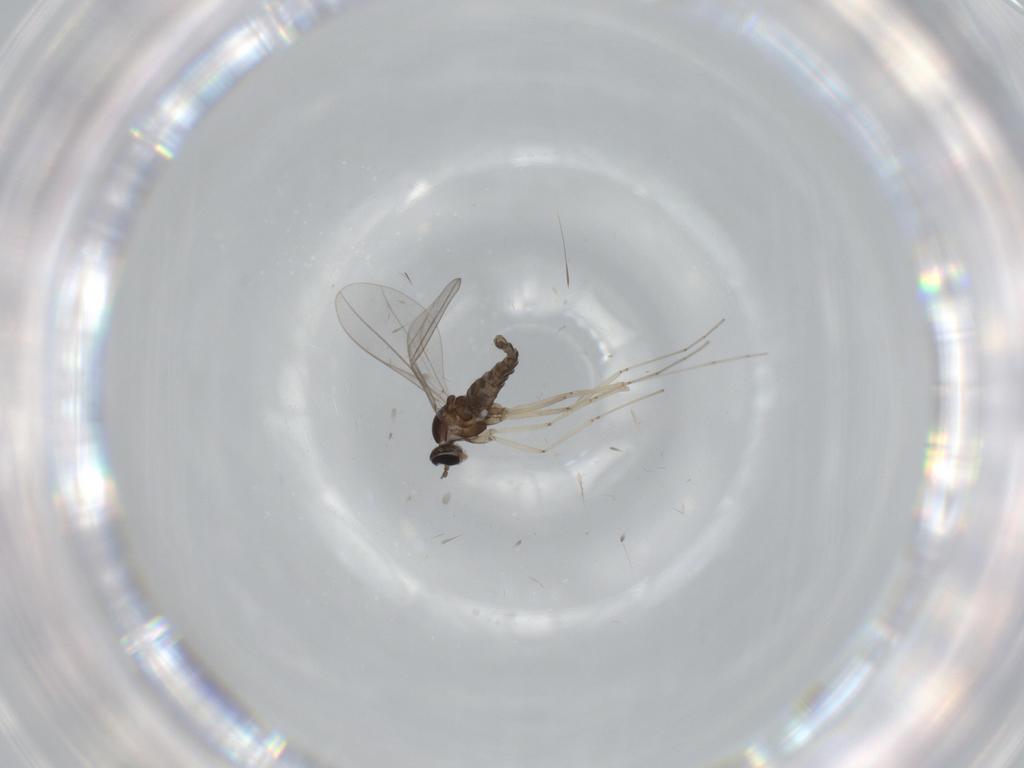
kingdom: Animalia
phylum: Arthropoda
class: Insecta
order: Diptera
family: Cecidomyiidae
